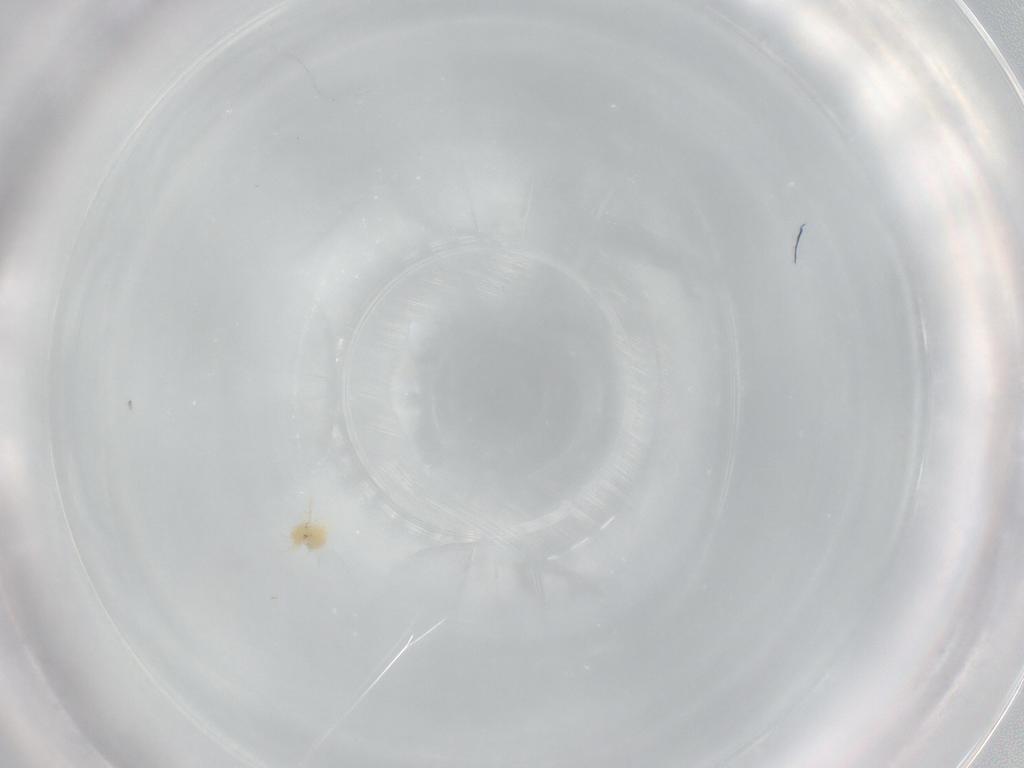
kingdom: Animalia
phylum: Arthropoda
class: Arachnida
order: Trombidiformes
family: Tetranychidae
